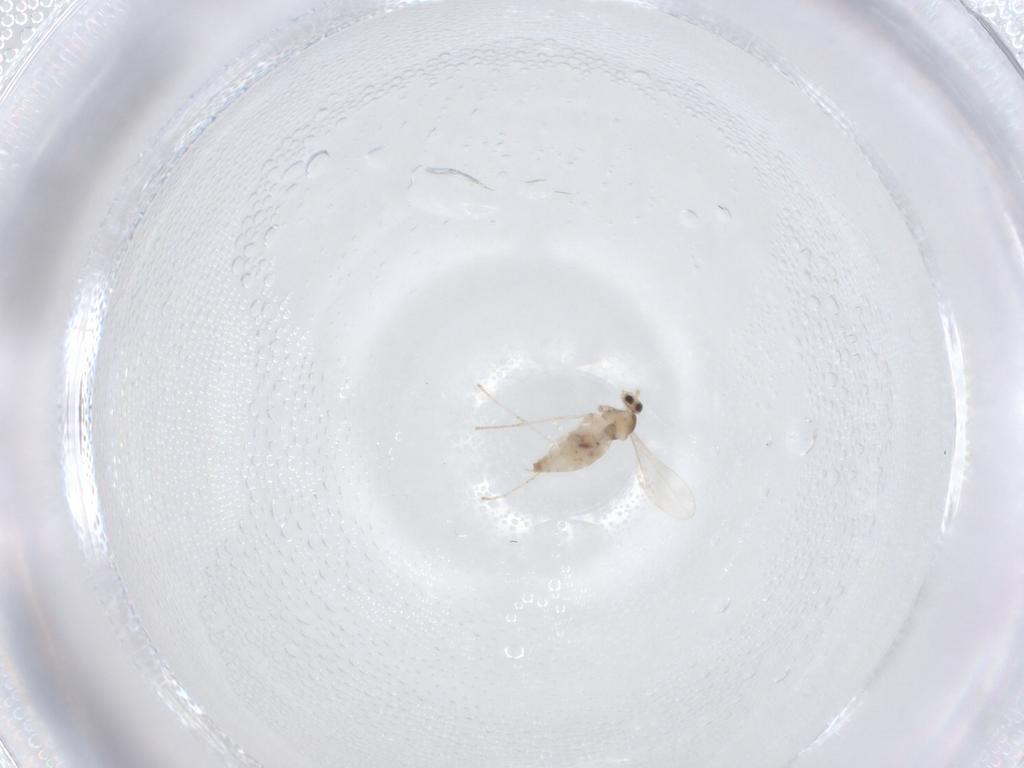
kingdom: Animalia
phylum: Arthropoda
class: Insecta
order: Diptera
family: Cecidomyiidae
